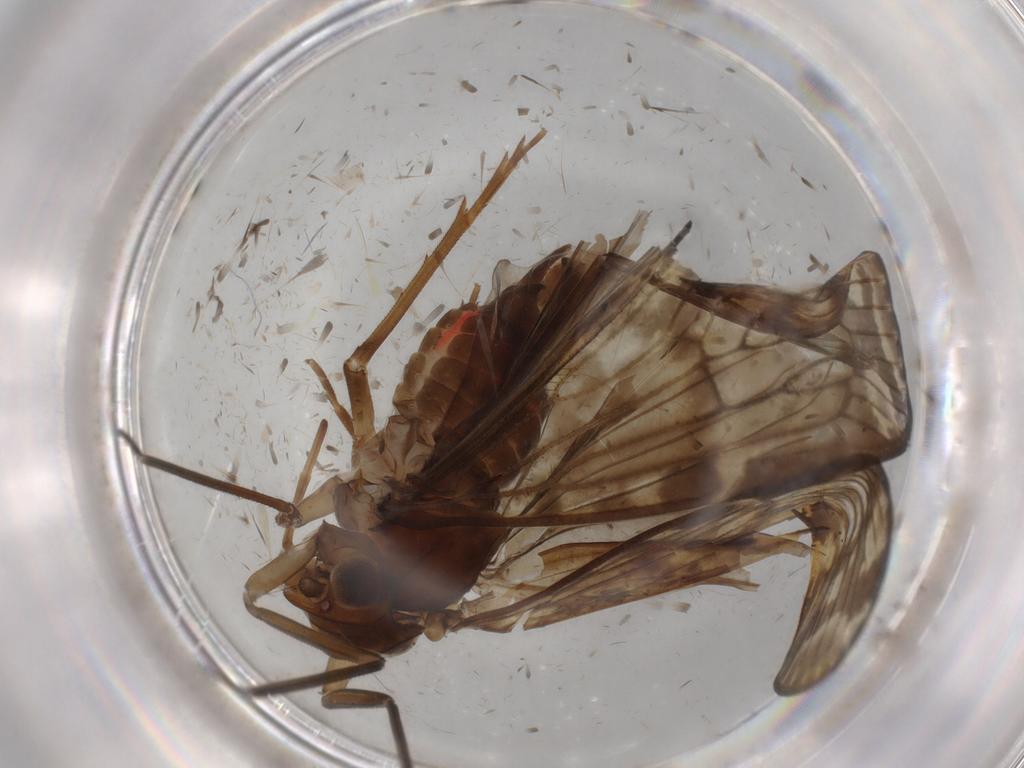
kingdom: Animalia
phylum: Arthropoda
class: Insecta
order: Hemiptera
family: Cicadellidae
